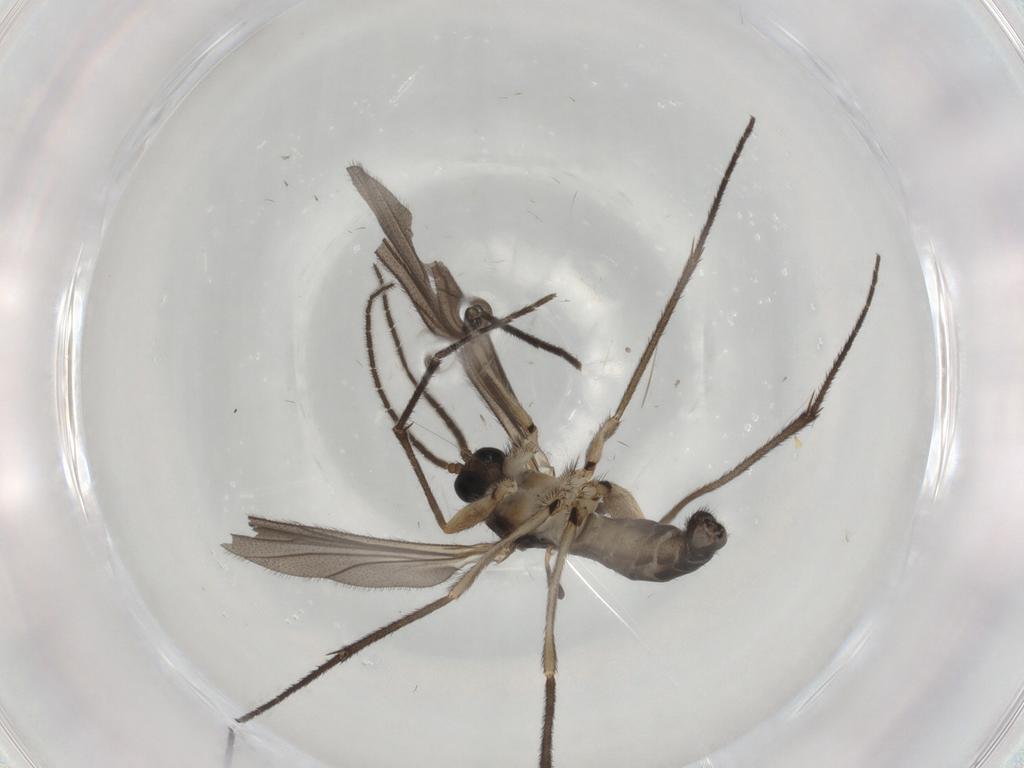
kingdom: Animalia
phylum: Arthropoda
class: Insecta
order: Diptera
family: Sciaridae
